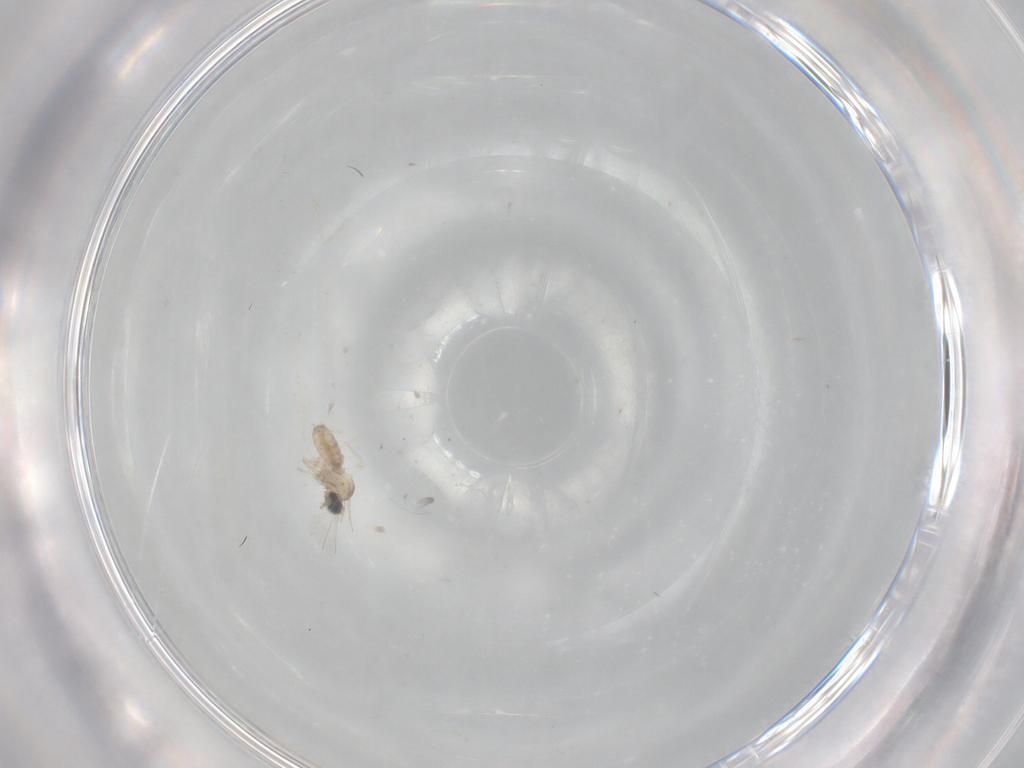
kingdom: Animalia
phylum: Arthropoda
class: Insecta
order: Diptera
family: Cecidomyiidae
